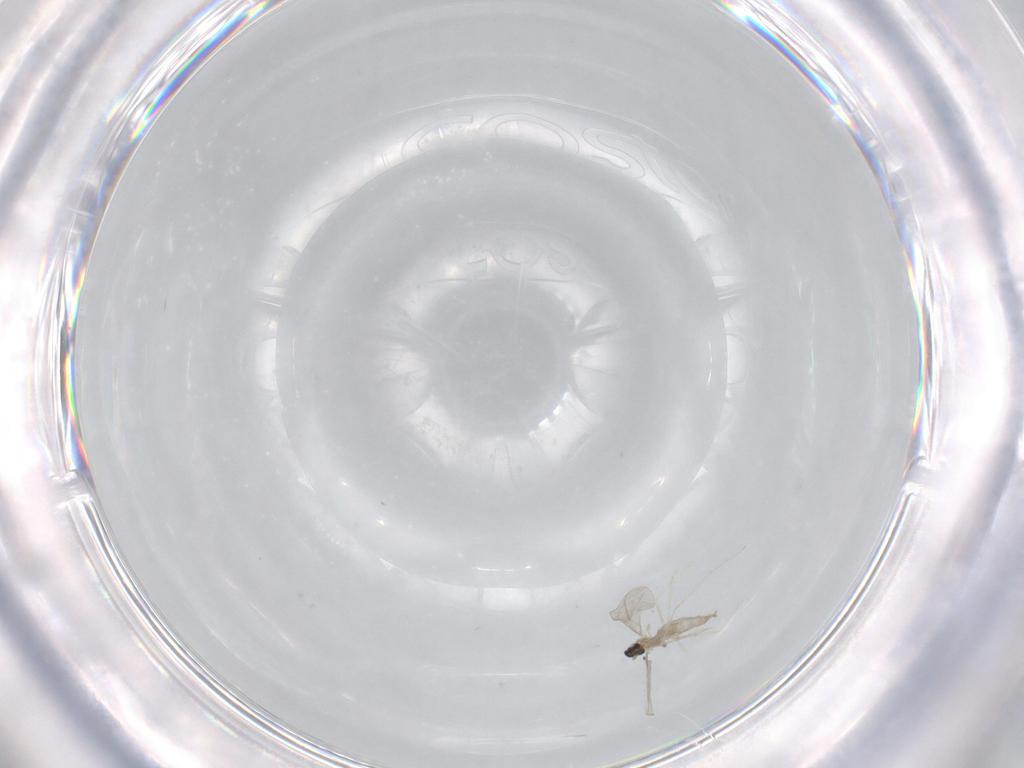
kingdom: Animalia
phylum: Arthropoda
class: Insecta
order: Diptera
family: Cecidomyiidae
